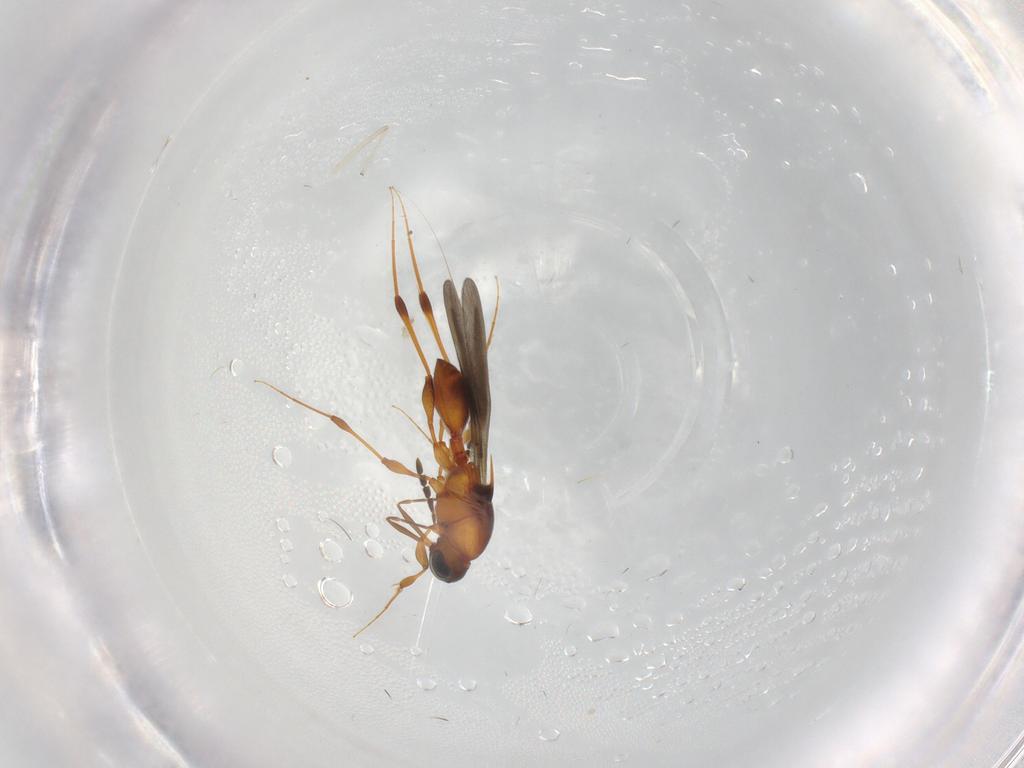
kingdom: Animalia
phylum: Arthropoda
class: Insecta
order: Hymenoptera
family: Platygastridae
